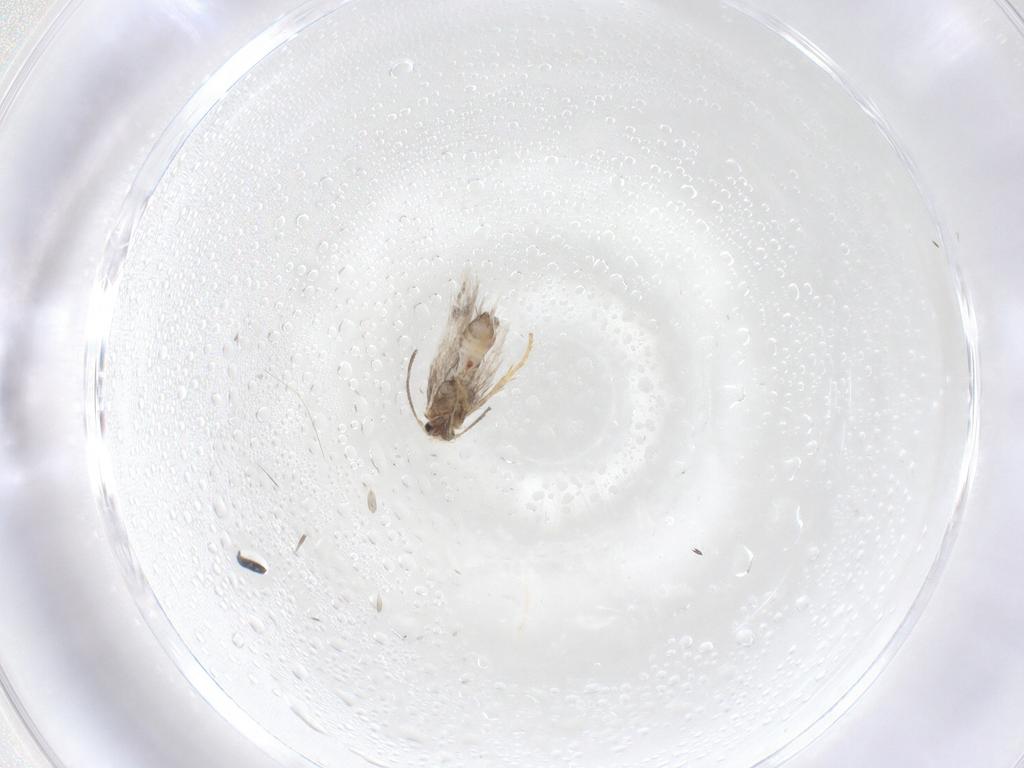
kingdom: Animalia
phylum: Arthropoda
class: Insecta
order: Lepidoptera
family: Nepticulidae
